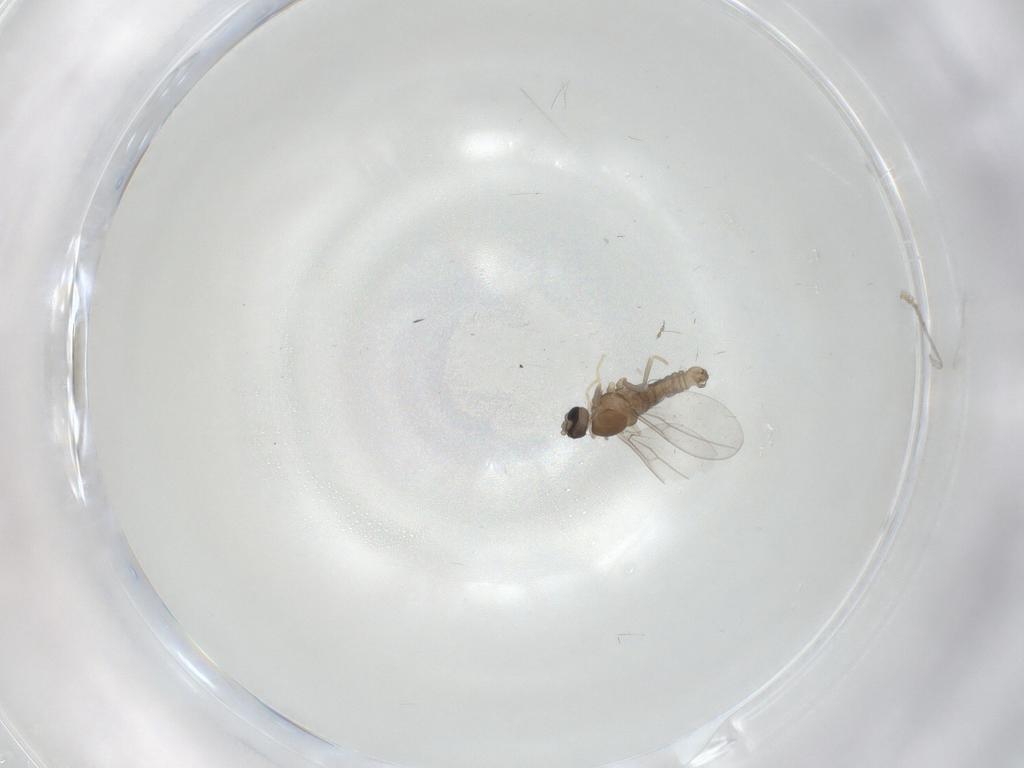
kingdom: Animalia
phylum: Arthropoda
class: Insecta
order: Diptera
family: Cecidomyiidae
